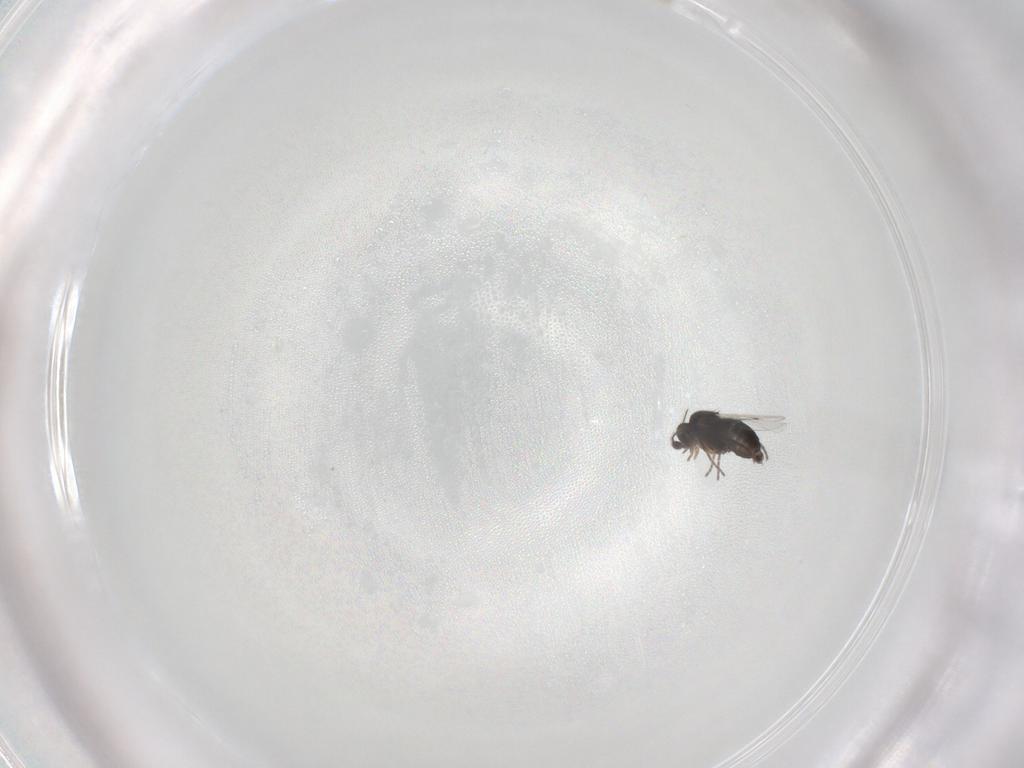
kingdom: Animalia
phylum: Arthropoda
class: Insecta
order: Diptera
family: Phoridae
